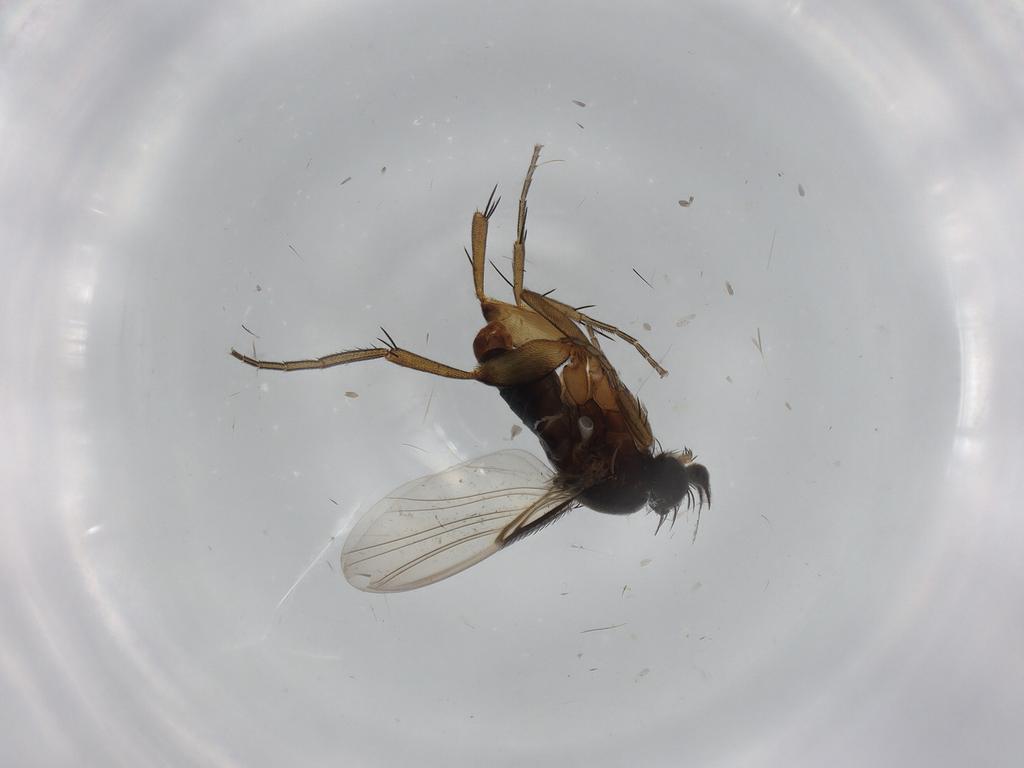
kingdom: Animalia
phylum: Arthropoda
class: Insecta
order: Diptera
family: Phoridae
